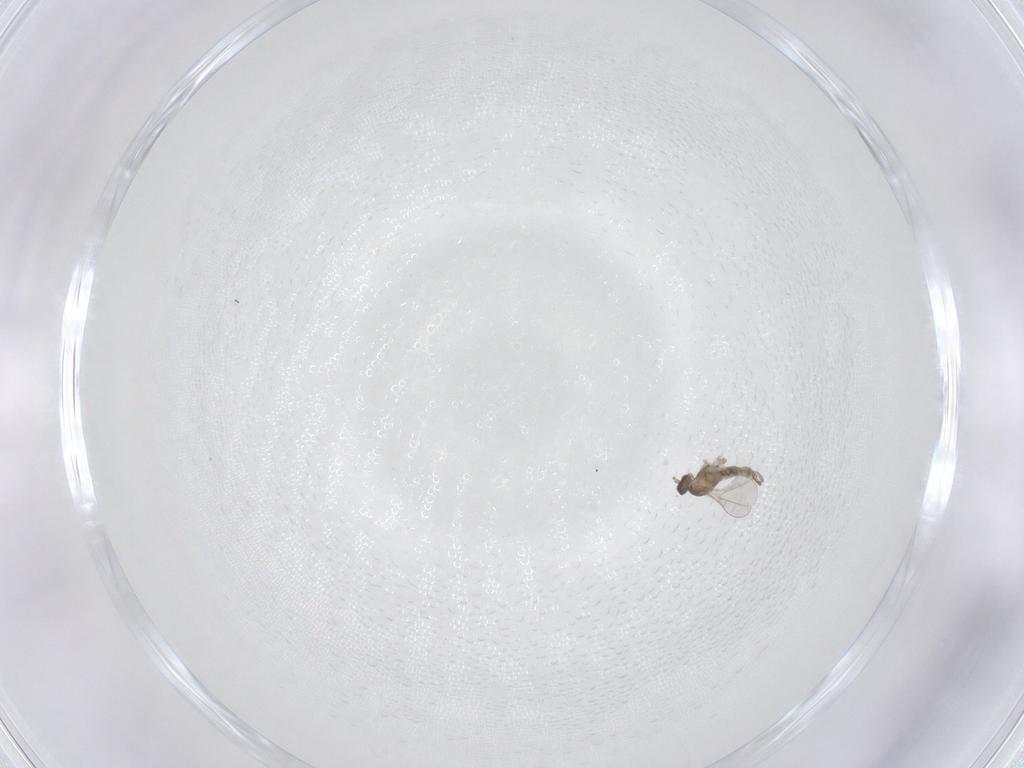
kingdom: Animalia
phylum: Arthropoda
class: Insecta
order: Diptera
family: Cecidomyiidae
